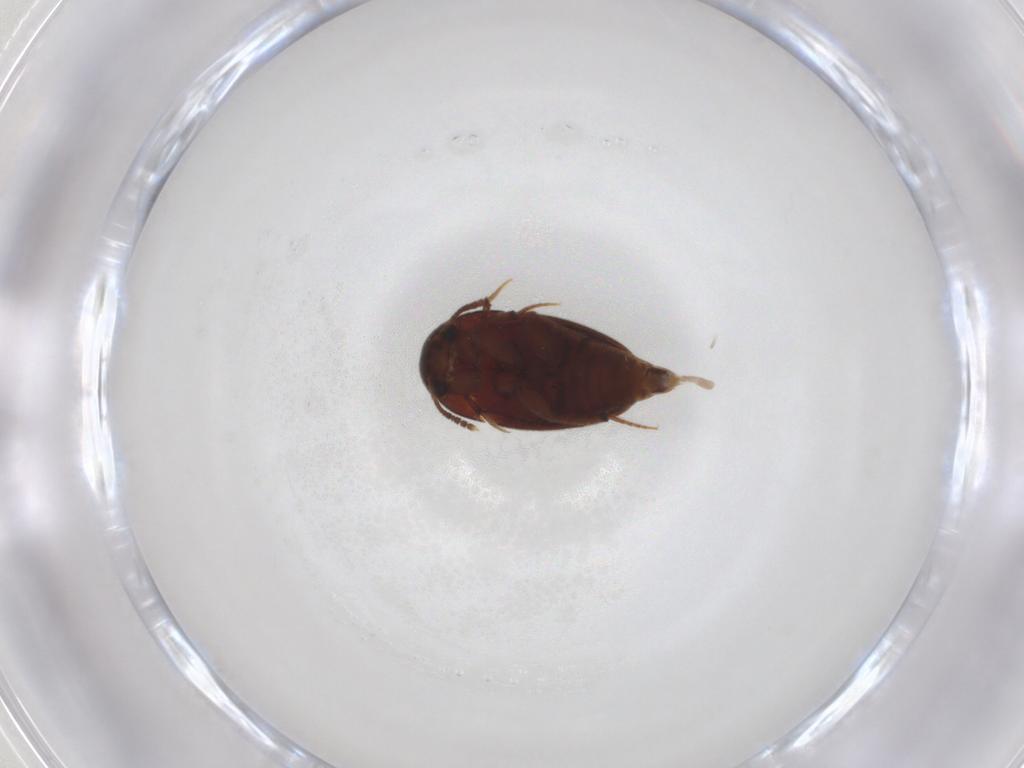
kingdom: Animalia
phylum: Arthropoda
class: Insecta
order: Coleoptera
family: Leiodidae
